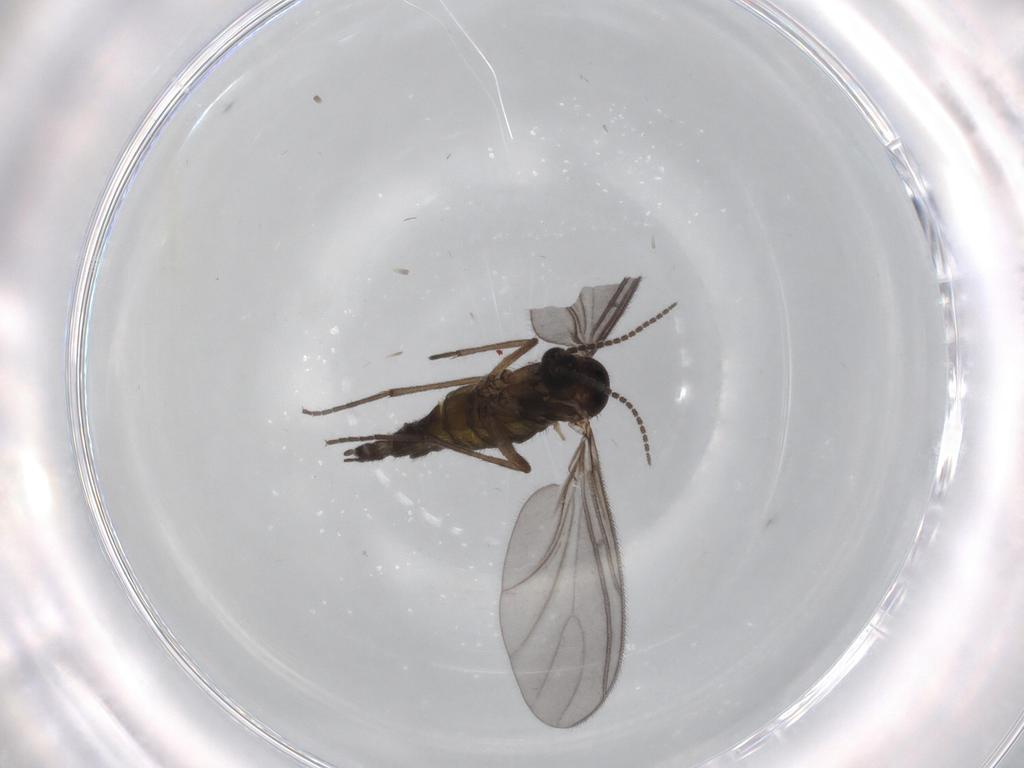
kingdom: Animalia
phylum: Arthropoda
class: Insecta
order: Diptera
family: Sciaridae
